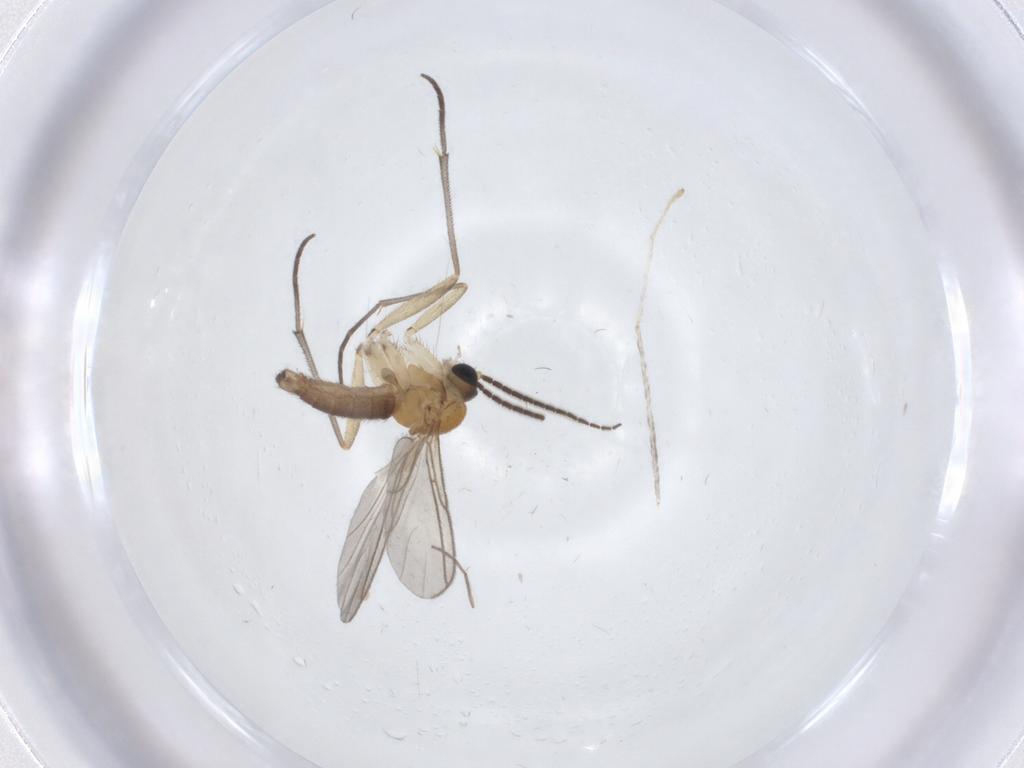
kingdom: Animalia
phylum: Arthropoda
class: Insecta
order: Diptera
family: Sciaridae
